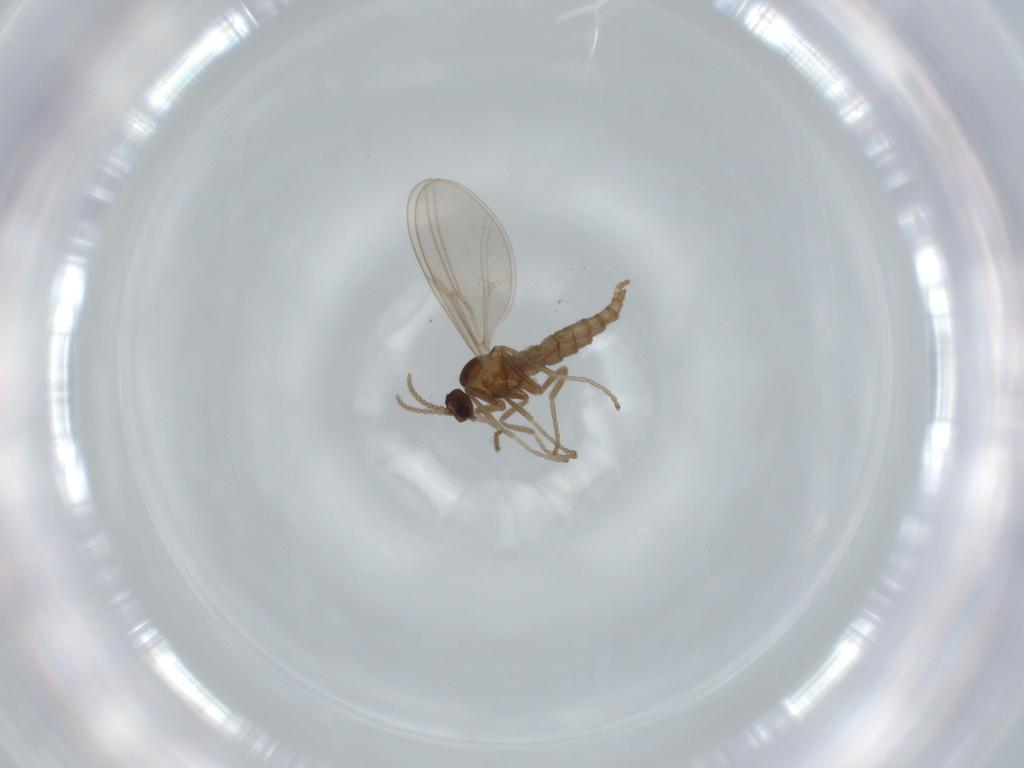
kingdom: Animalia
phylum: Arthropoda
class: Insecta
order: Diptera
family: Cecidomyiidae
